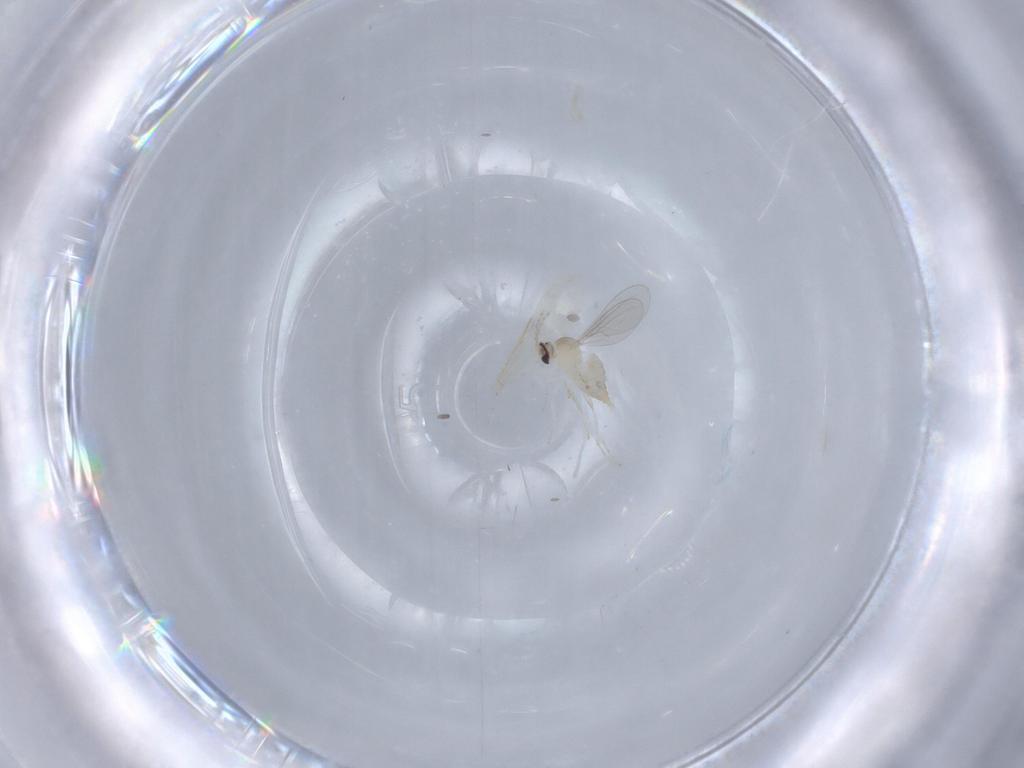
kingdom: Animalia
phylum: Arthropoda
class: Insecta
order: Diptera
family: Cecidomyiidae
